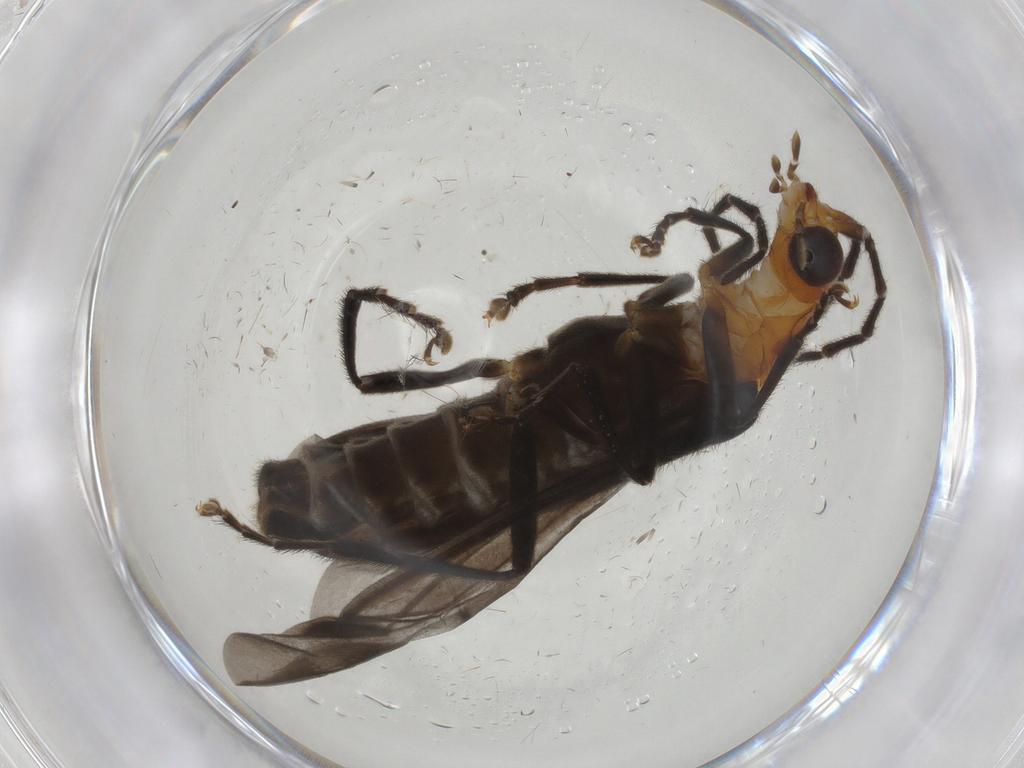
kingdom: Animalia
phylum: Arthropoda
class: Insecta
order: Coleoptera
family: Cantharidae
